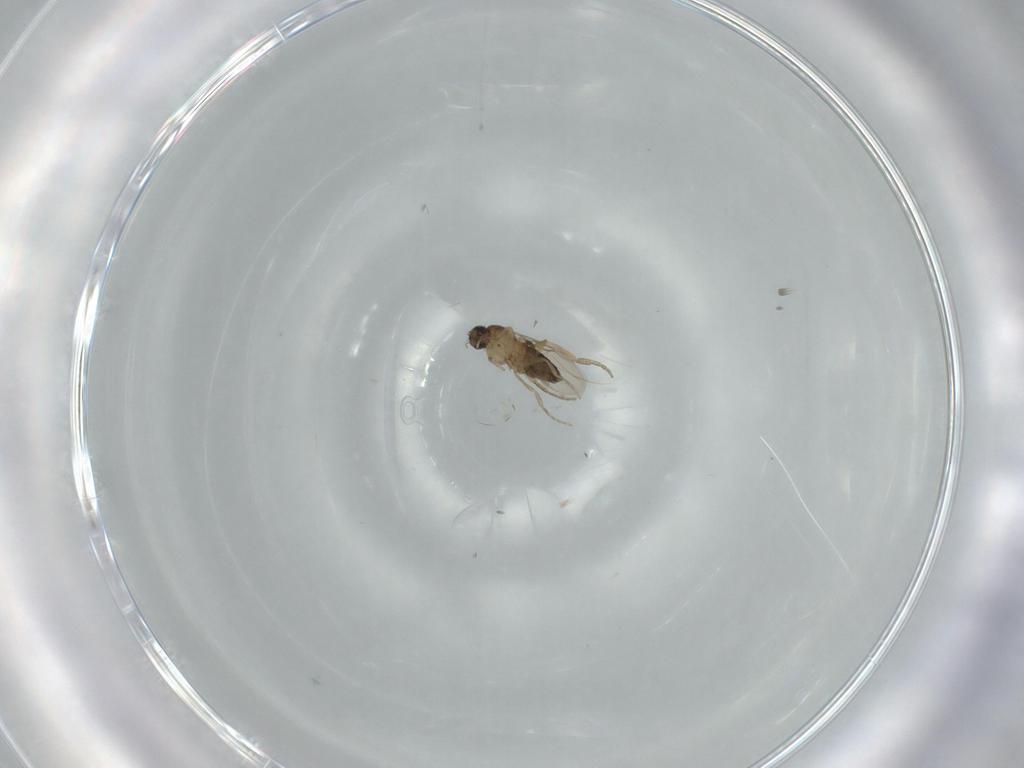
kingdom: Animalia
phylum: Arthropoda
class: Insecta
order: Diptera
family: Phoridae
